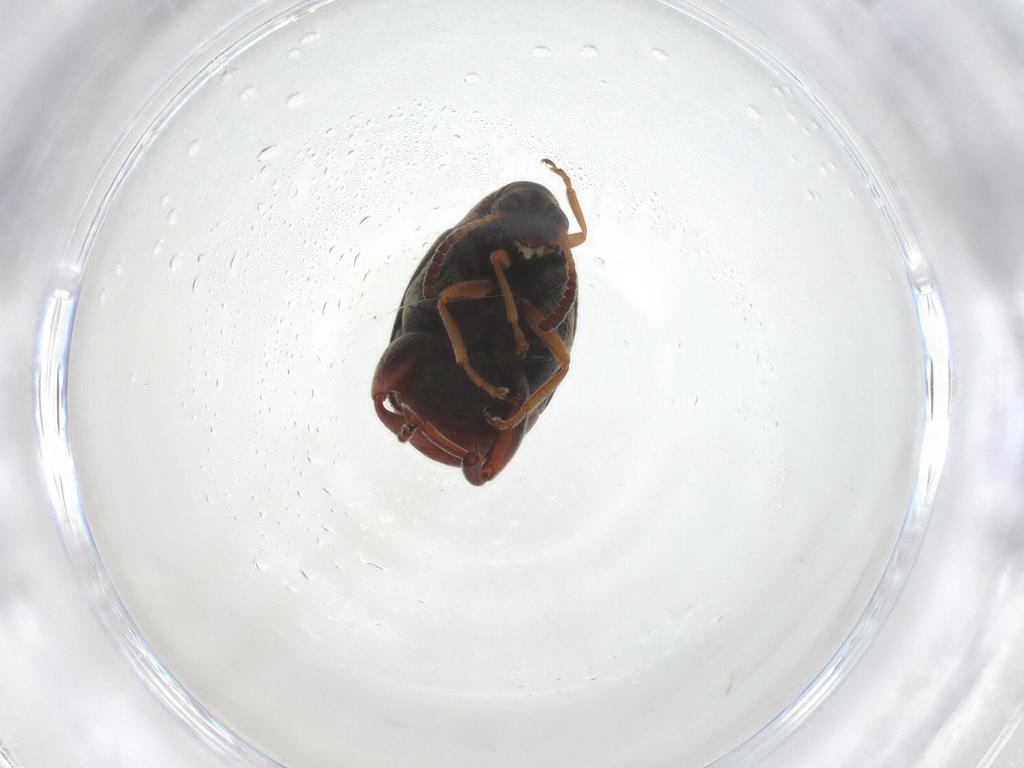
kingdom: Animalia
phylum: Arthropoda
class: Insecta
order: Coleoptera
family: Chrysomelidae
